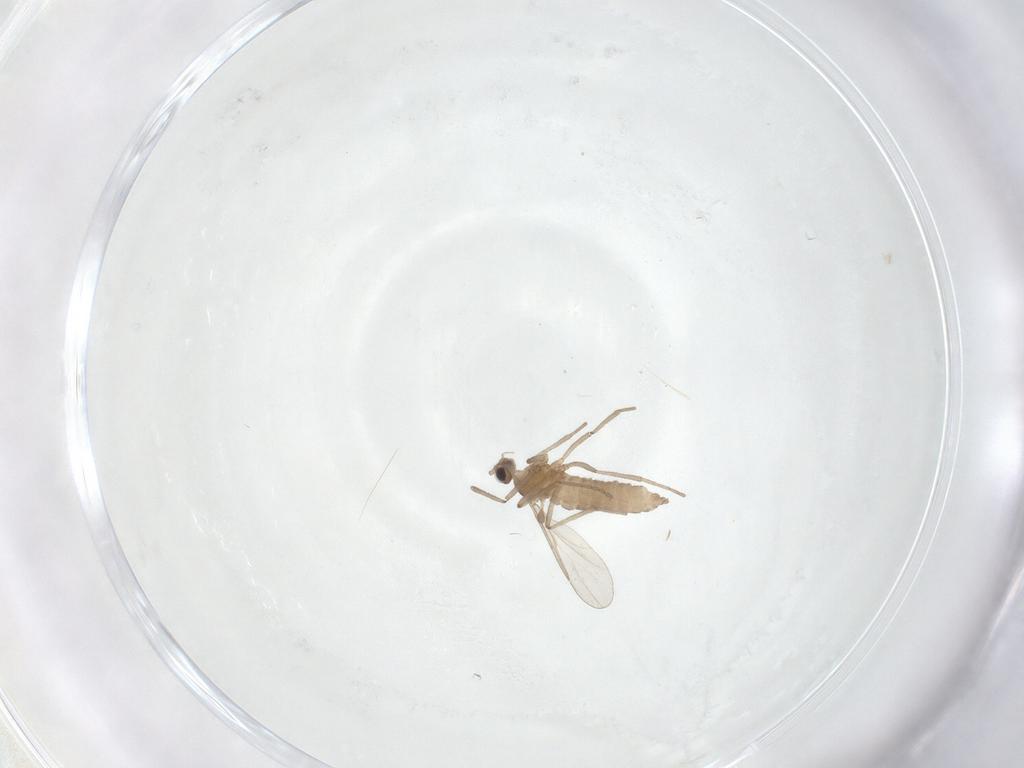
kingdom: Animalia
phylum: Arthropoda
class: Insecta
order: Diptera
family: Cecidomyiidae
